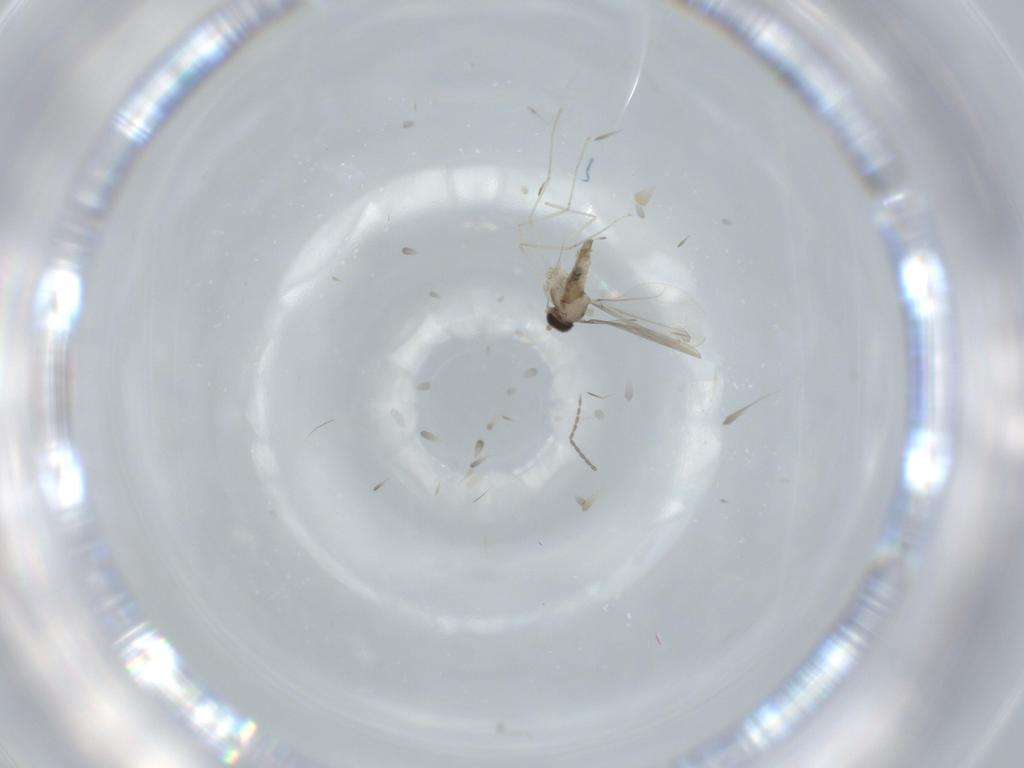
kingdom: Animalia
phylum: Arthropoda
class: Insecta
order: Diptera
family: Cecidomyiidae
